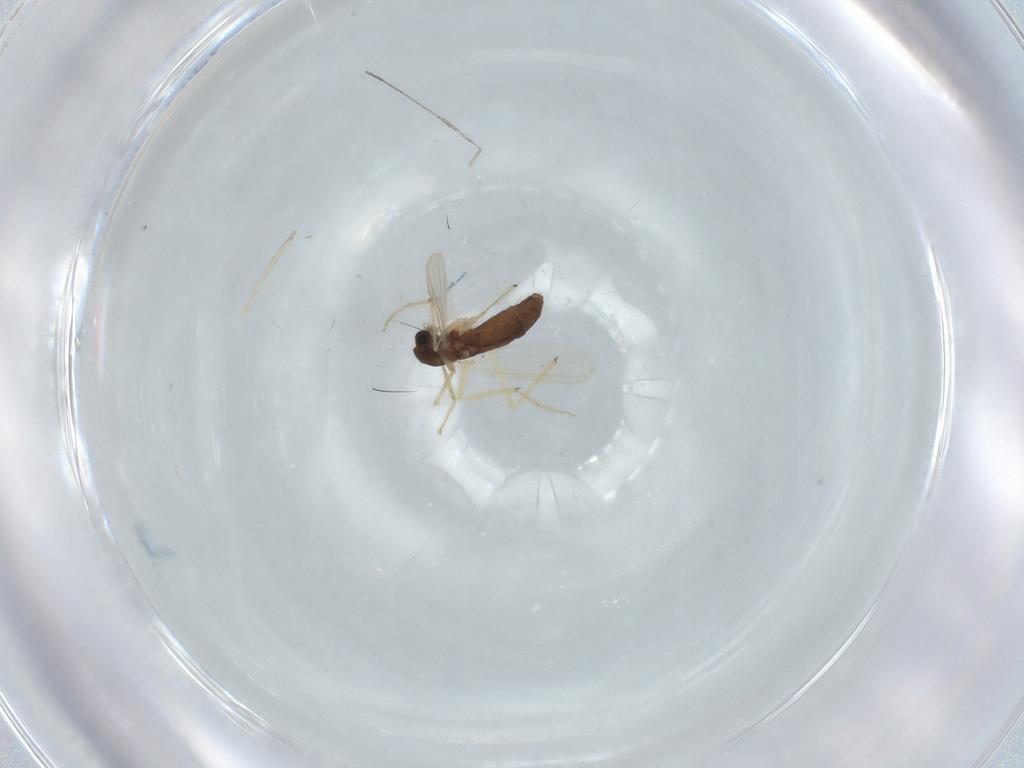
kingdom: Animalia
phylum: Arthropoda
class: Insecta
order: Diptera
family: Chironomidae
